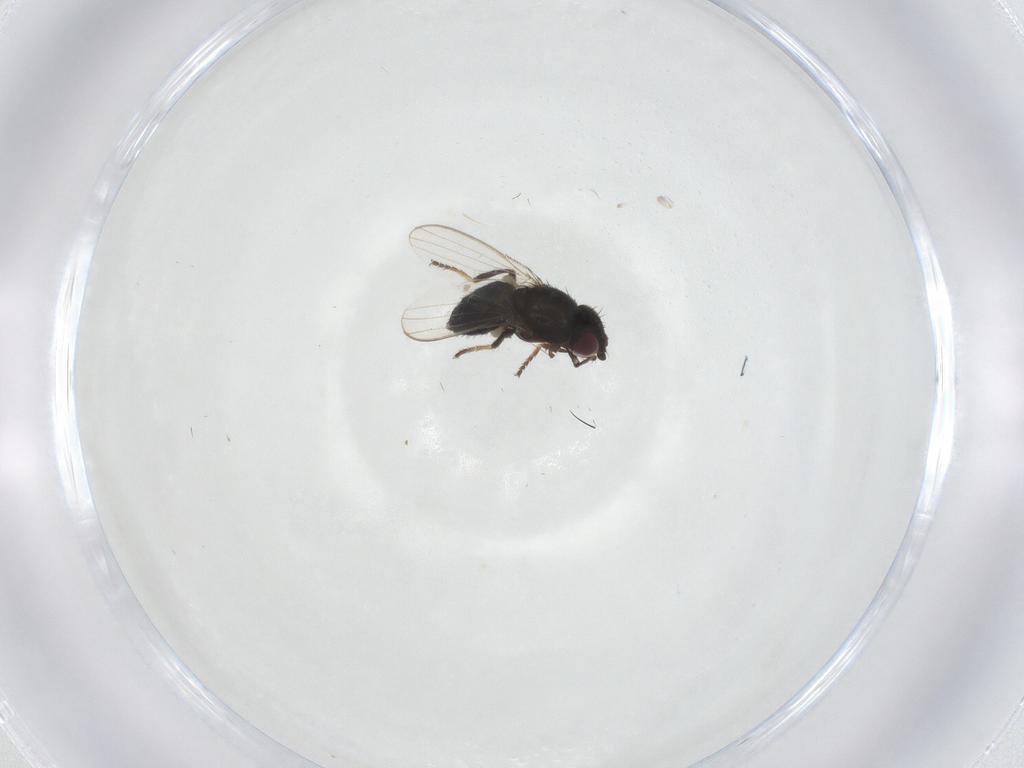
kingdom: Animalia
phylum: Arthropoda
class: Insecta
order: Diptera
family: Milichiidae
